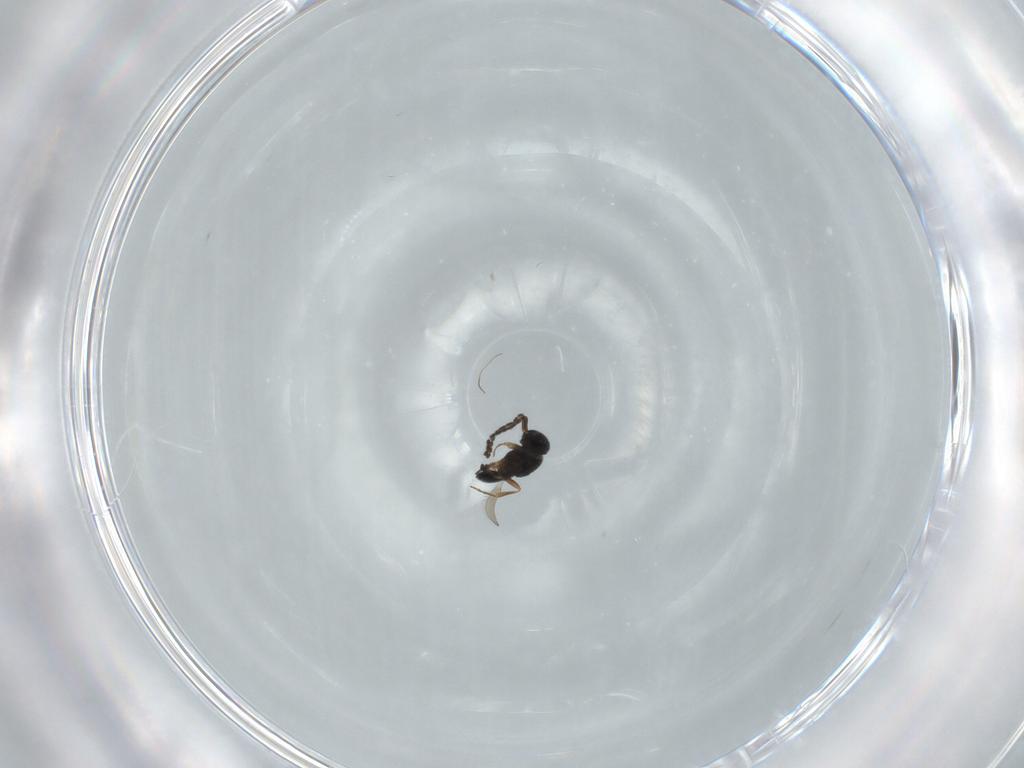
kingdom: Animalia
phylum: Arthropoda
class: Insecta
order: Hymenoptera
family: Scelionidae
